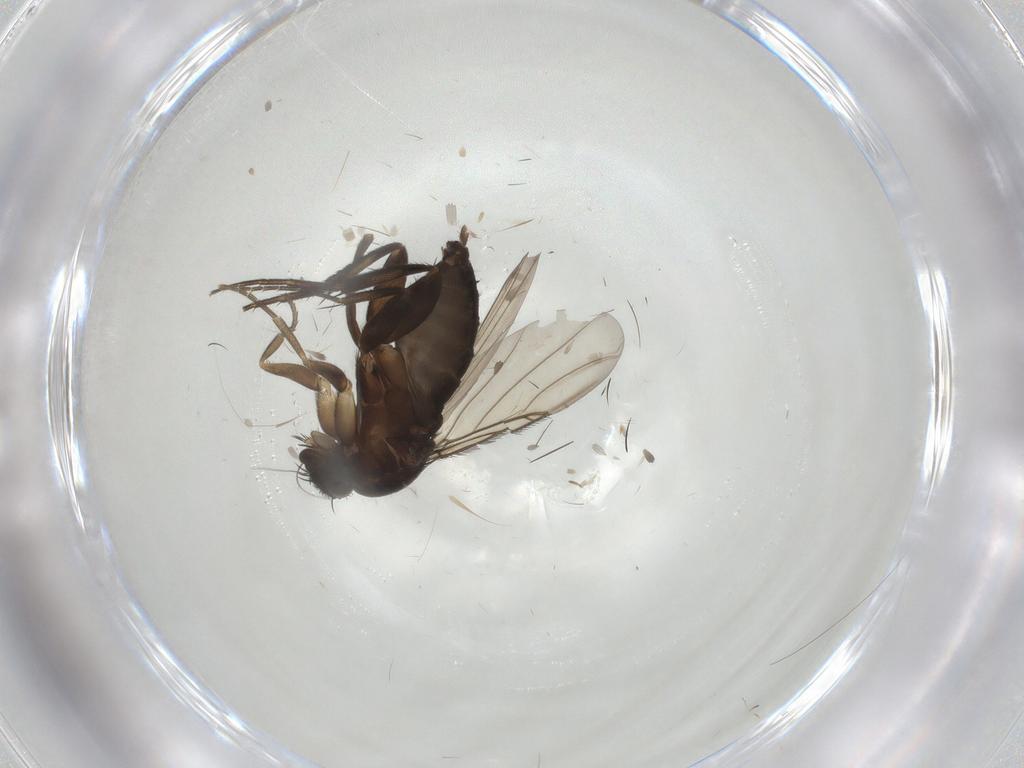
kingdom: Animalia
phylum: Arthropoda
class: Insecta
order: Diptera
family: Phoridae
